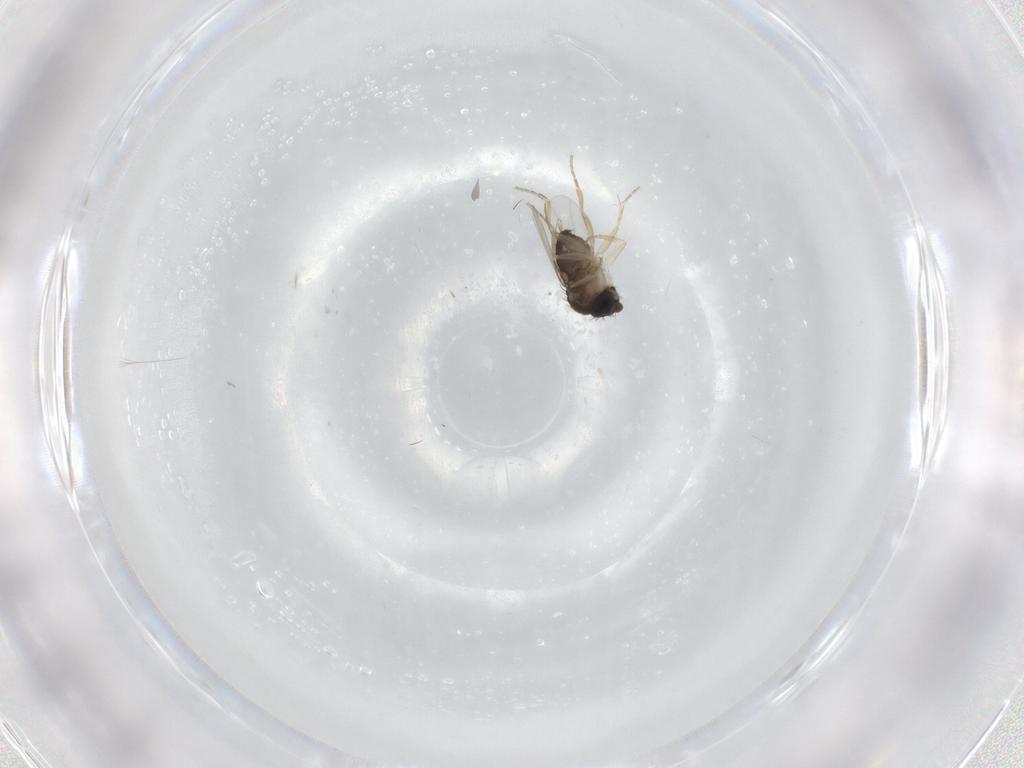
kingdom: Animalia
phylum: Arthropoda
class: Insecta
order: Diptera
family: Phoridae
